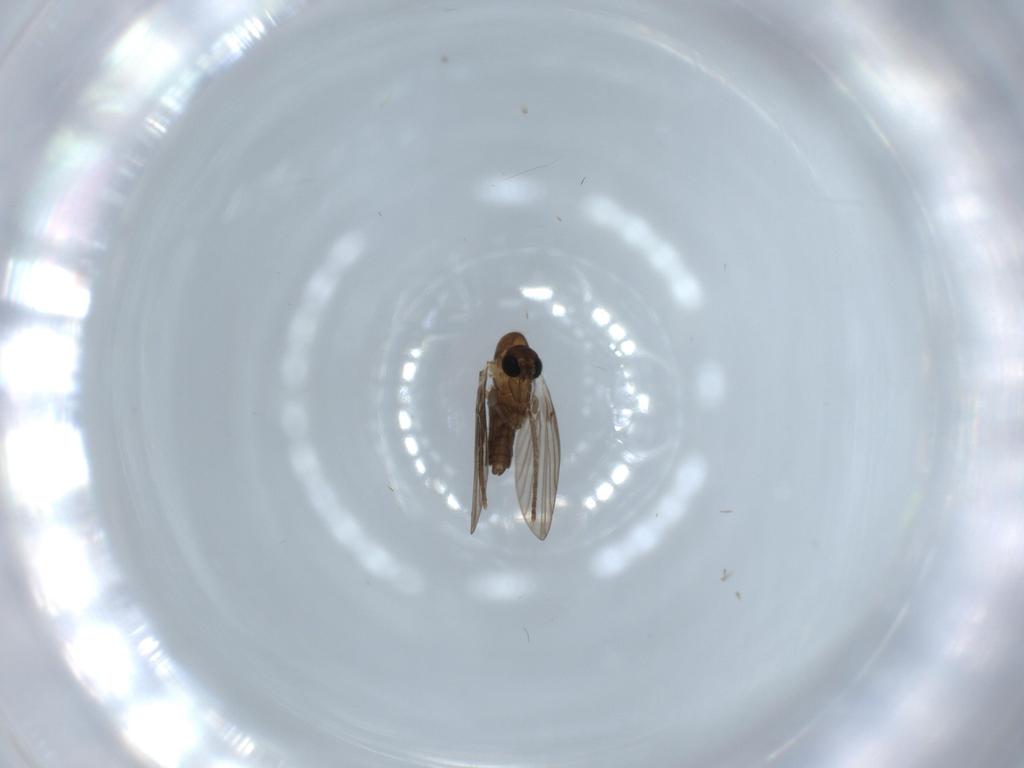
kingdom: Animalia
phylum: Arthropoda
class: Insecta
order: Diptera
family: Psychodidae
